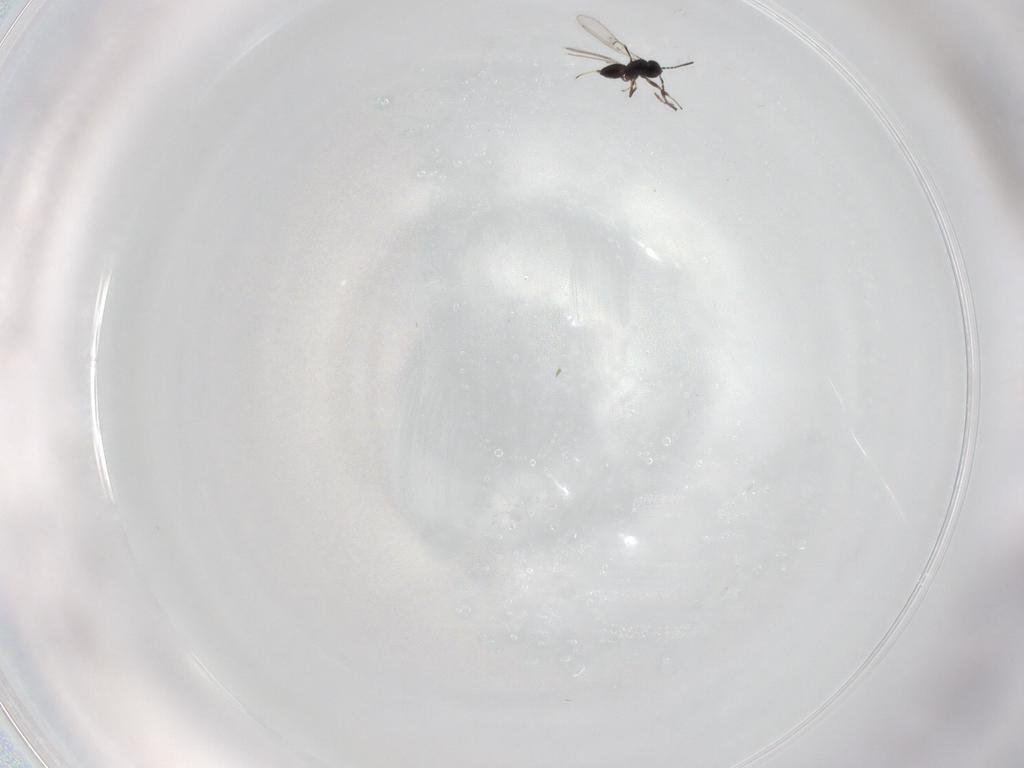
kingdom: Animalia
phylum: Arthropoda
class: Insecta
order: Hymenoptera
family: Scelionidae
